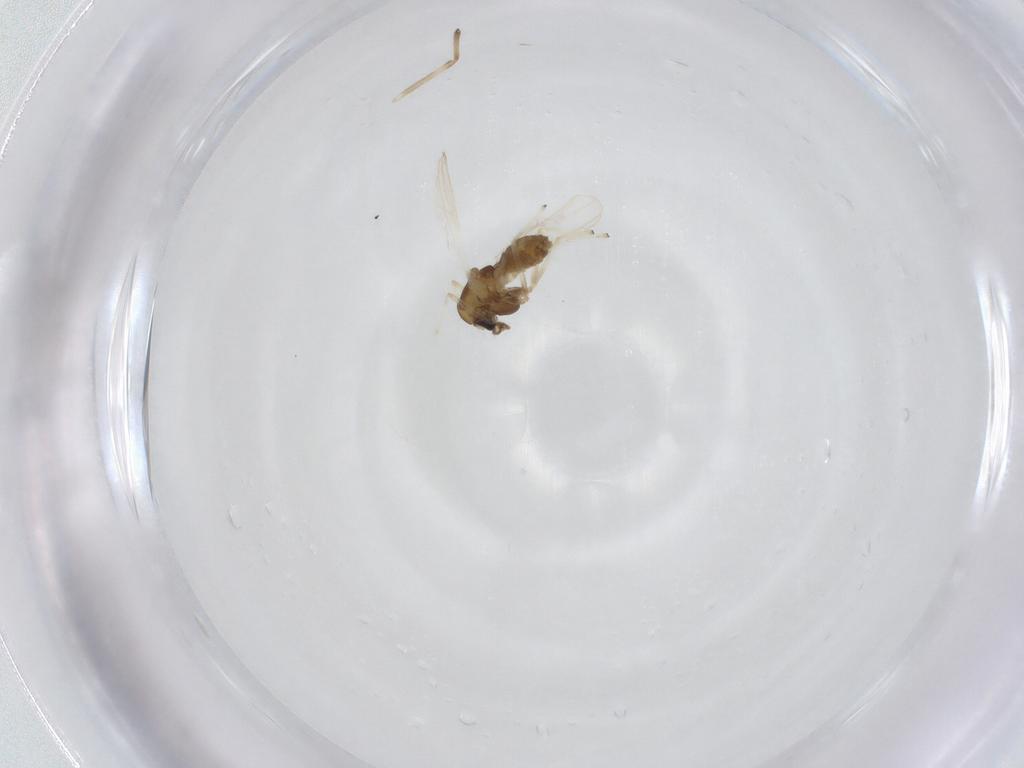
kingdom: Animalia
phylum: Arthropoda
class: Insecta
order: Diptera
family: Chironomidae
